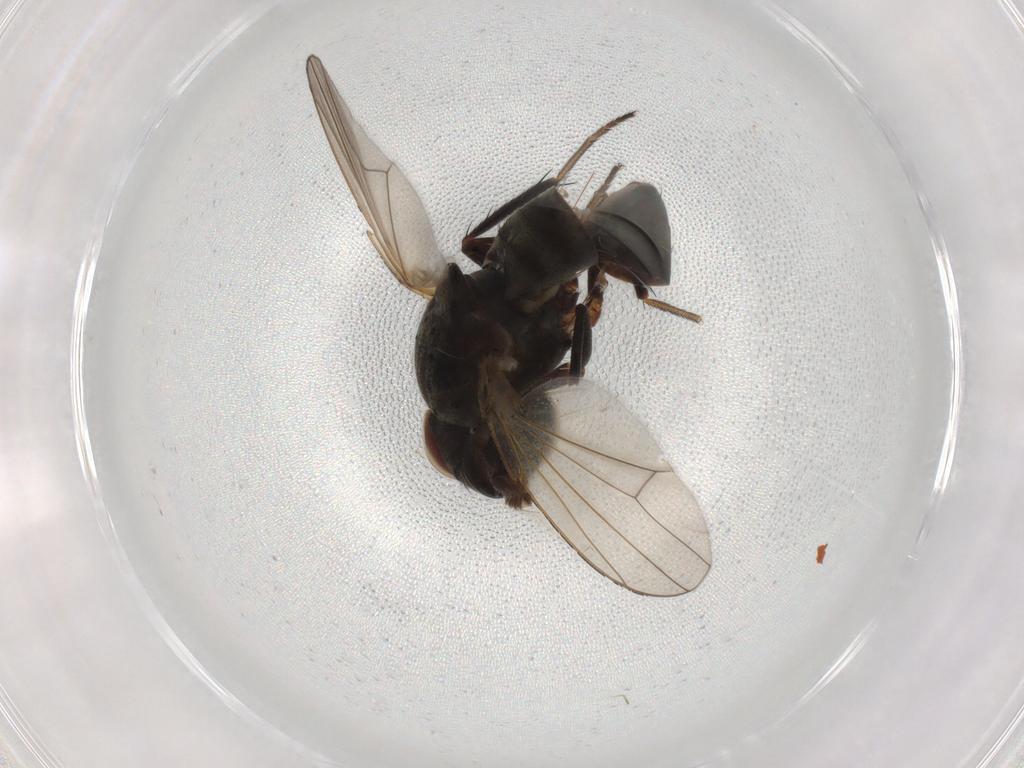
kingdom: Animalia
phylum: Arthropoda
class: Insecta
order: Diptera
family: Ephydridae
